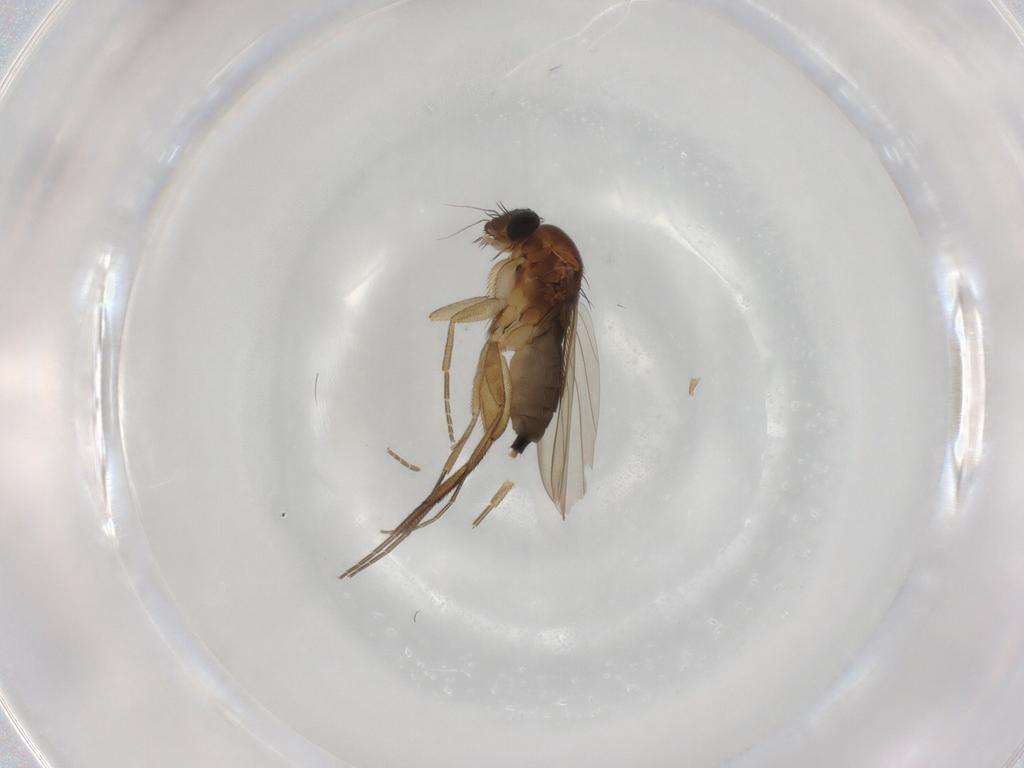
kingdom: Animalia
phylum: Arthropoda
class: Insecta
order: Diptera
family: Phoridae
